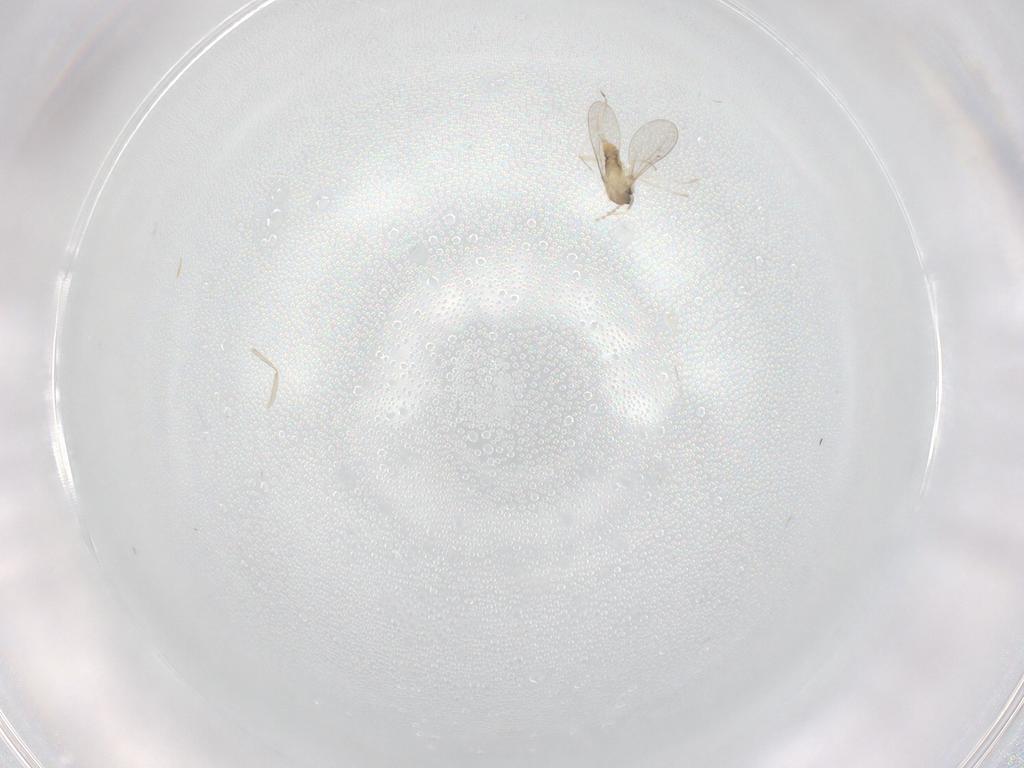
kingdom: Animalia
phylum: Arthropoda
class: Insecta
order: Diptera
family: Cecidomyiidae
